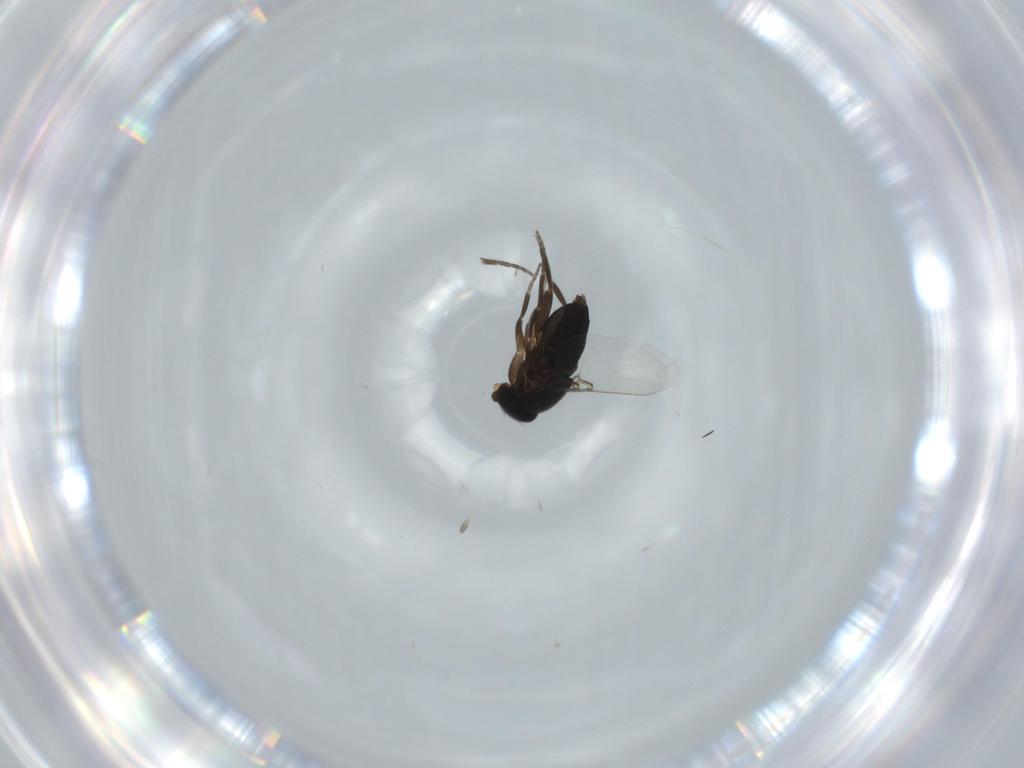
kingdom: Animalia
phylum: Arthropoda
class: Insecta
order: Diptera
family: Phoridae
